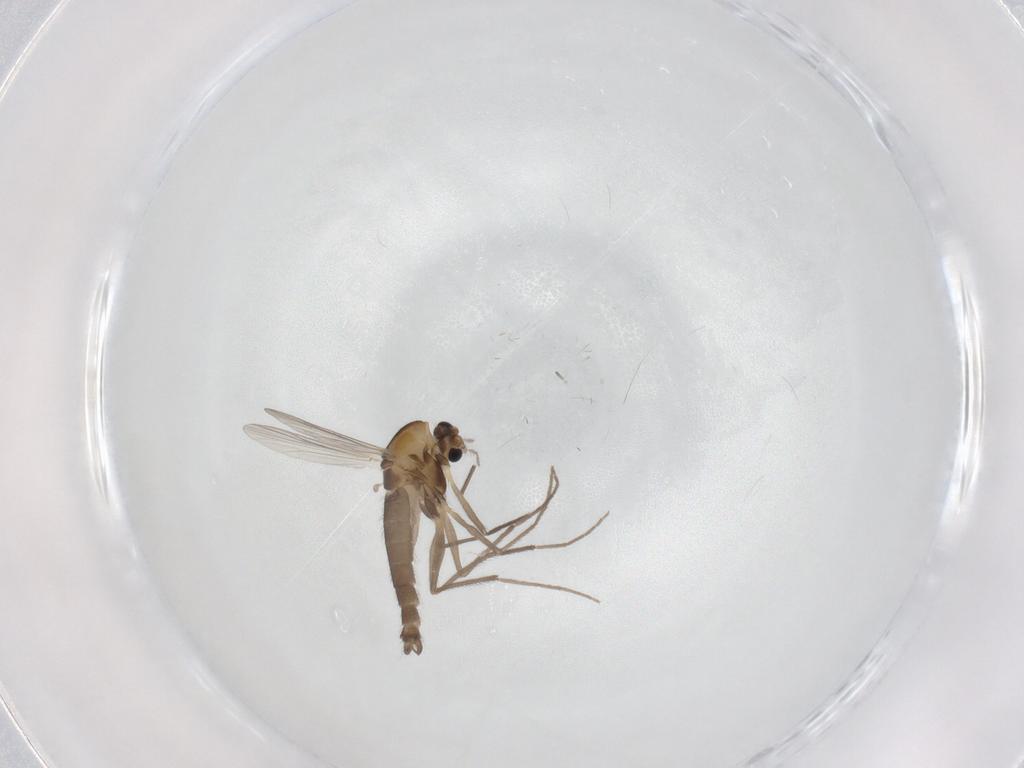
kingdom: Animalia
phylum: Arthropoda
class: Insecta
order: Diptera
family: Chironomidae
